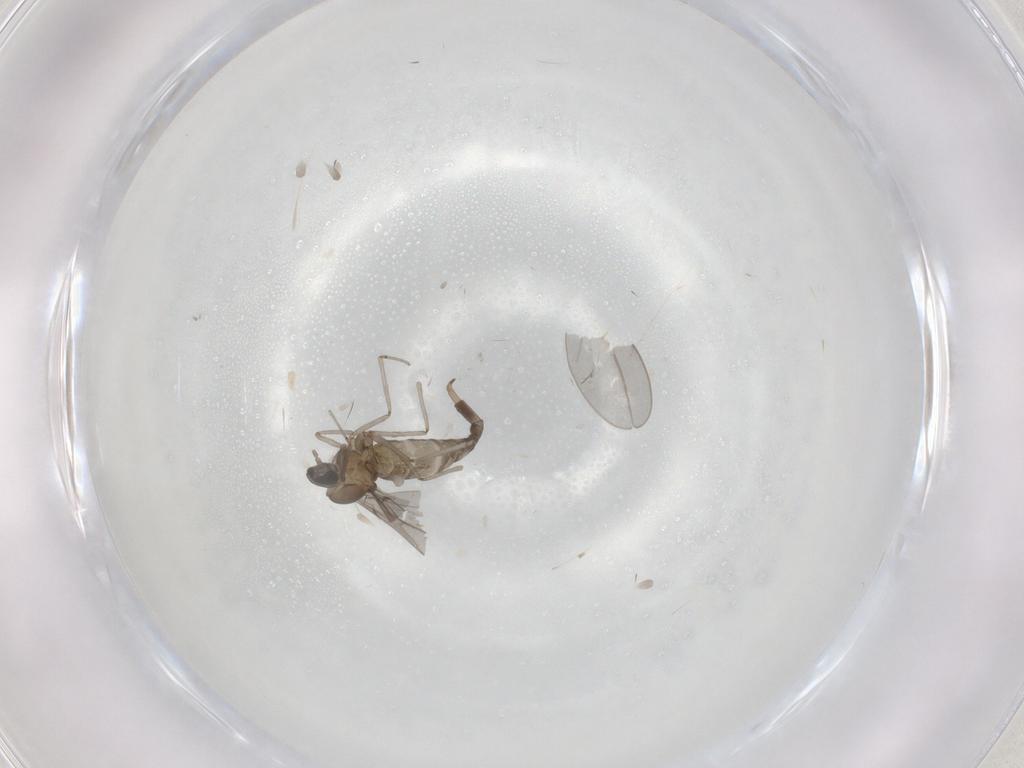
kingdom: Animalia
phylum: Arthropoda
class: Insecta
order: Diptera
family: Cecidomyiidae
